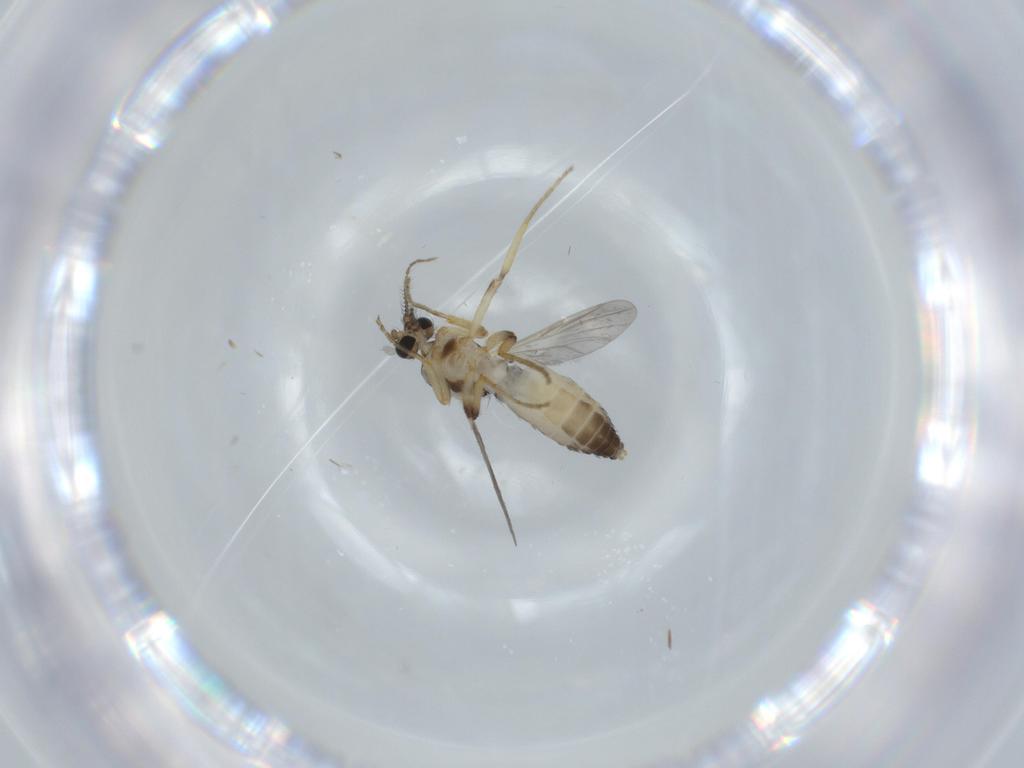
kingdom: Animalia
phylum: Arthropoda
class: Insecta
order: Diptera
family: Ceratopogonidae
